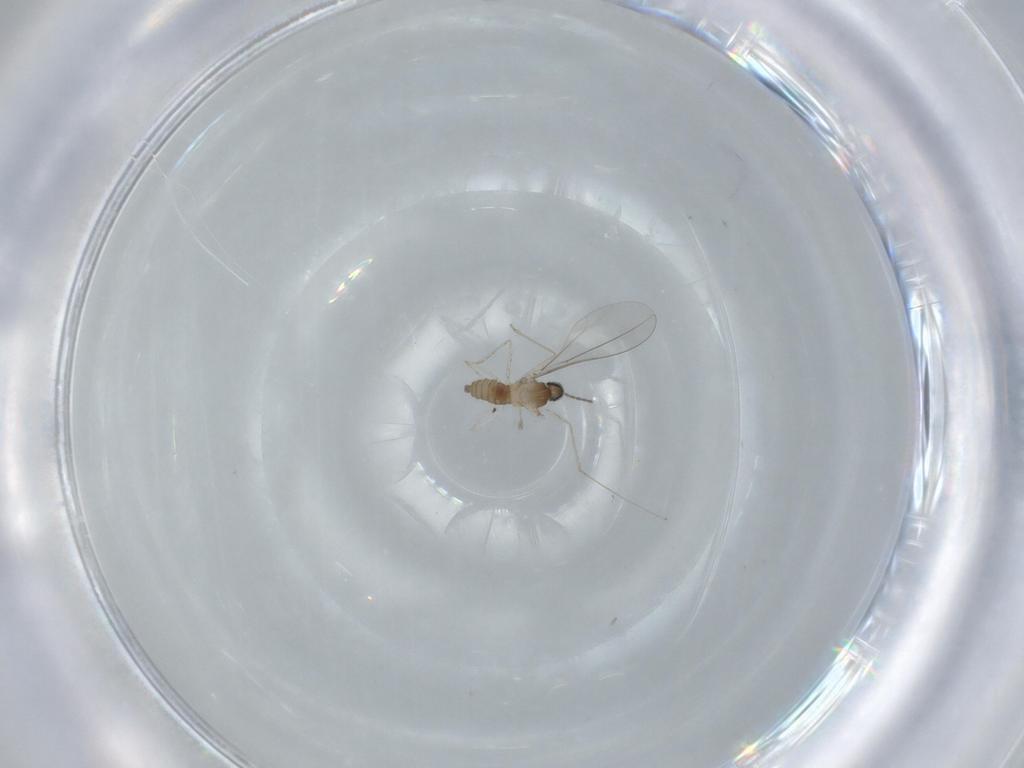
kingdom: Animalia
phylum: Arthropoda
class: Insecta
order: Diptera
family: Cecidomyiidae
